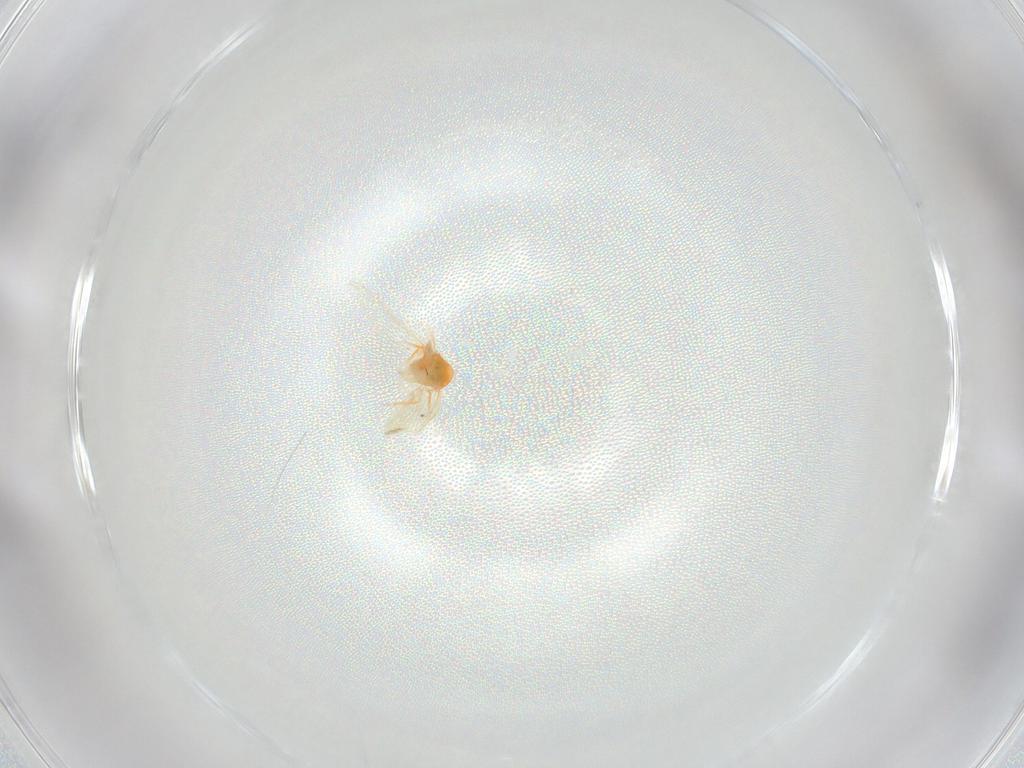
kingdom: Animalia
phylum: Arthropoda
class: Insecta
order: Hemiptera
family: Aleyrodidae
